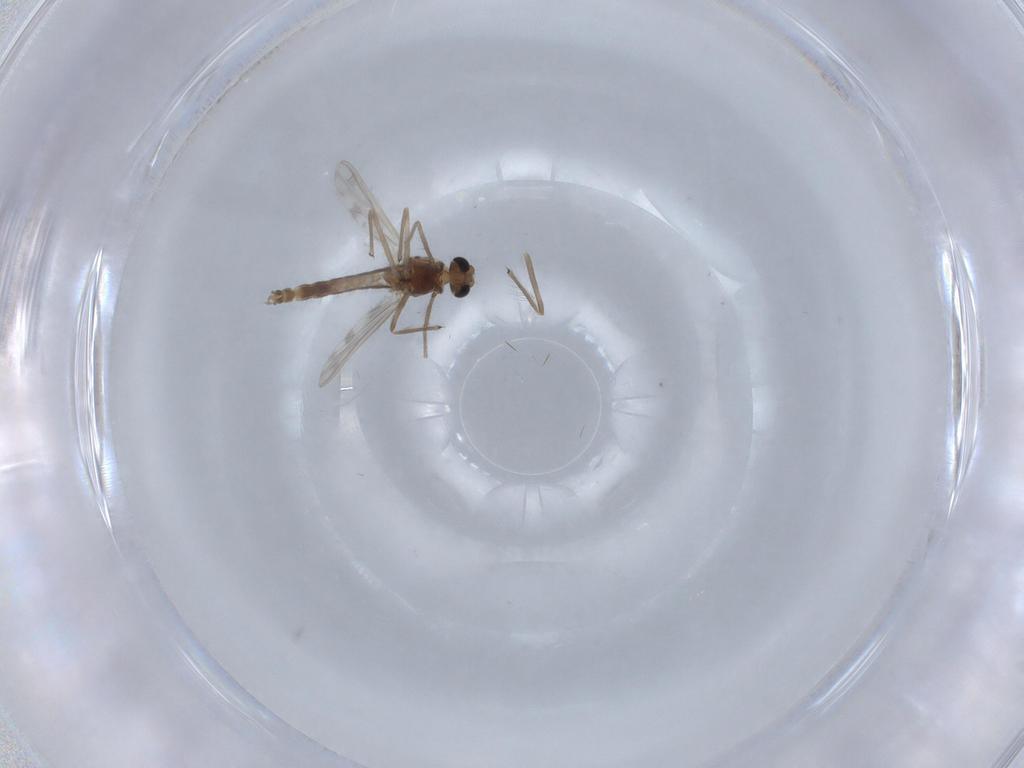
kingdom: Animalia
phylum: Arthropoda
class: Insecta
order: Diptera
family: Chironomidae
